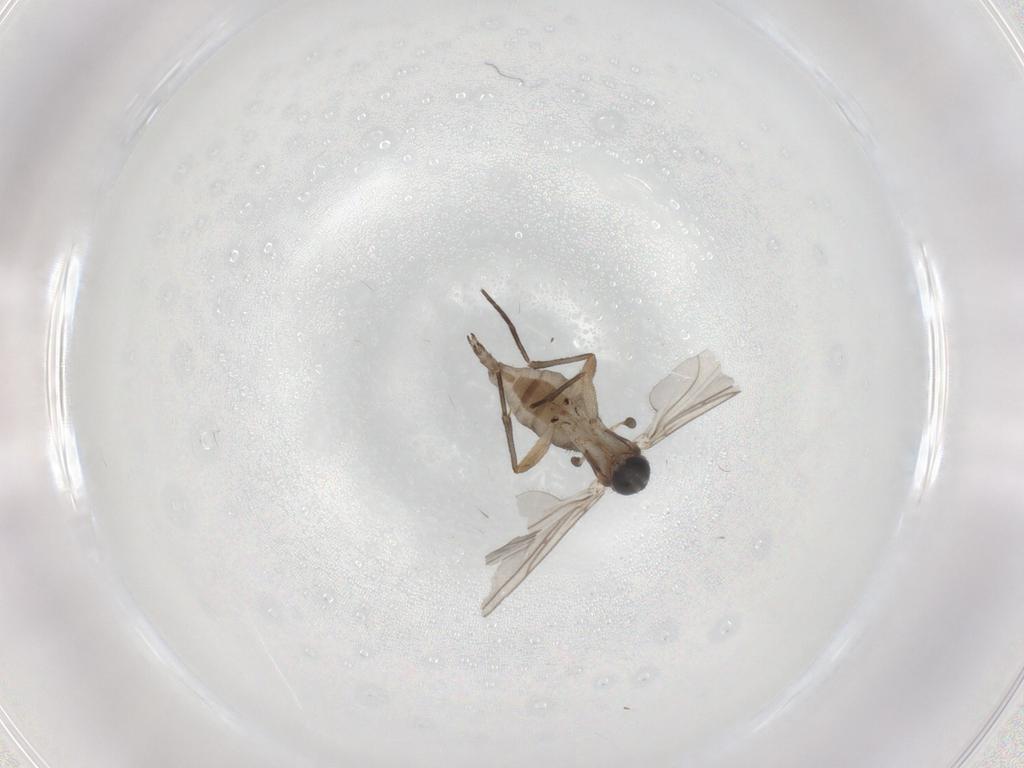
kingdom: Animalia
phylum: Arthropoda
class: Insecta
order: Diptera
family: Sciaridae
